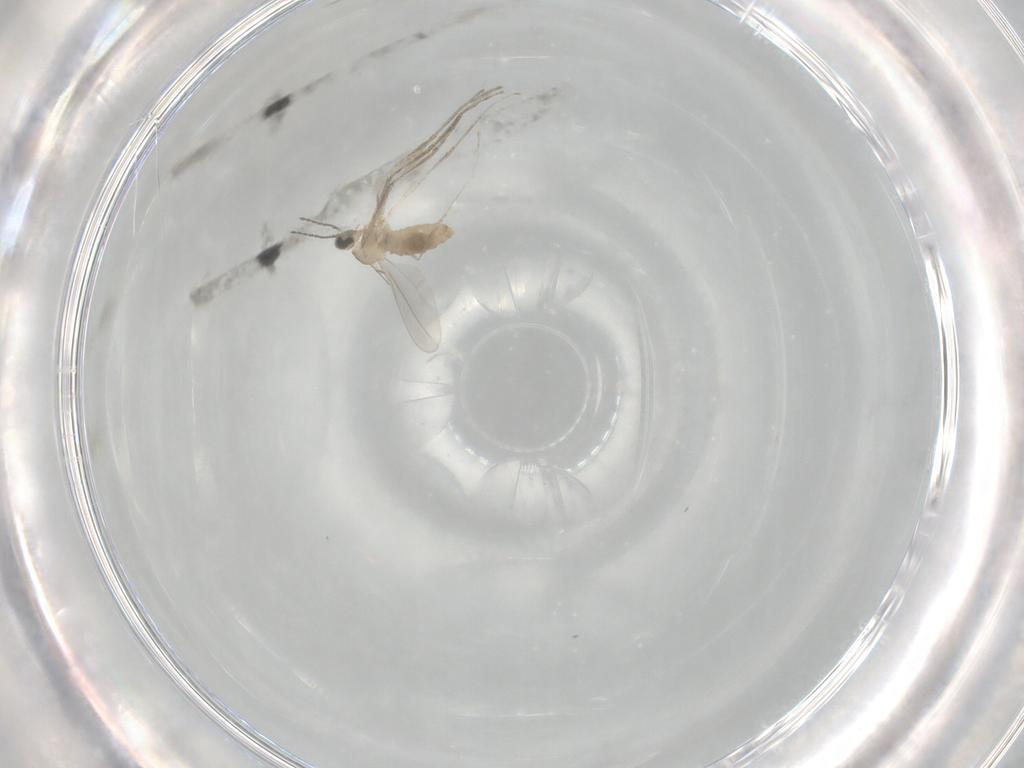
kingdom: Animalia
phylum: Arthropoda
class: Insecta
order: Diptera
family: Cecidomyiidae
